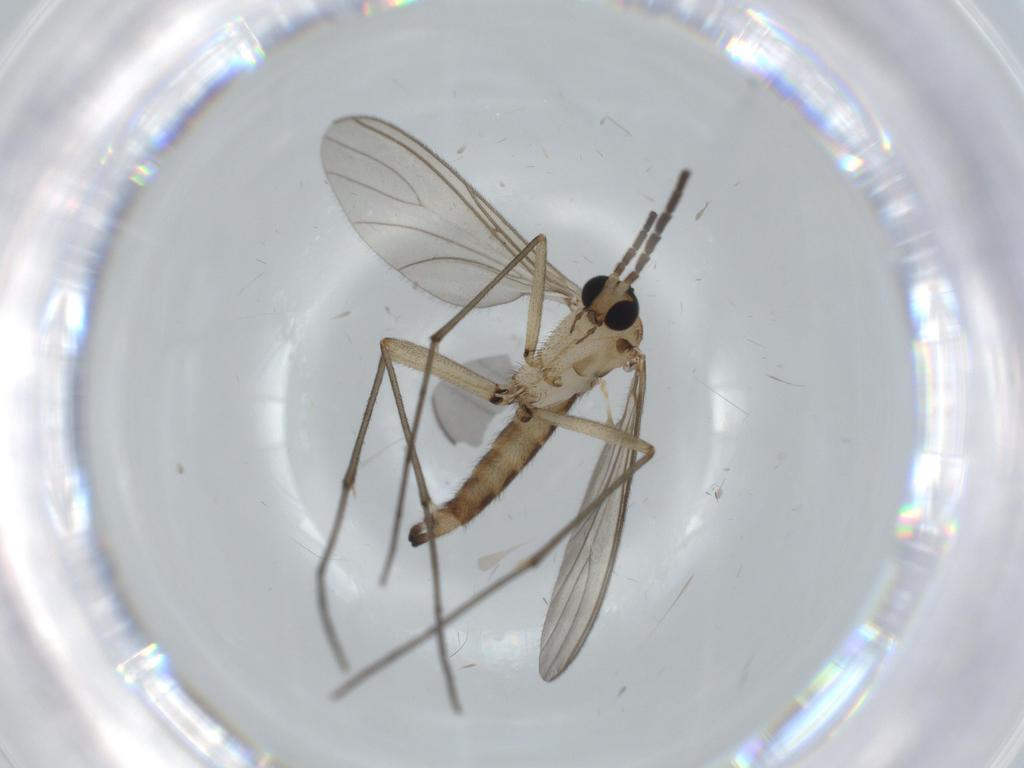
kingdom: Animalia
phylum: Arthropoda
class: Insecta
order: Diptera
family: Sciaridae
